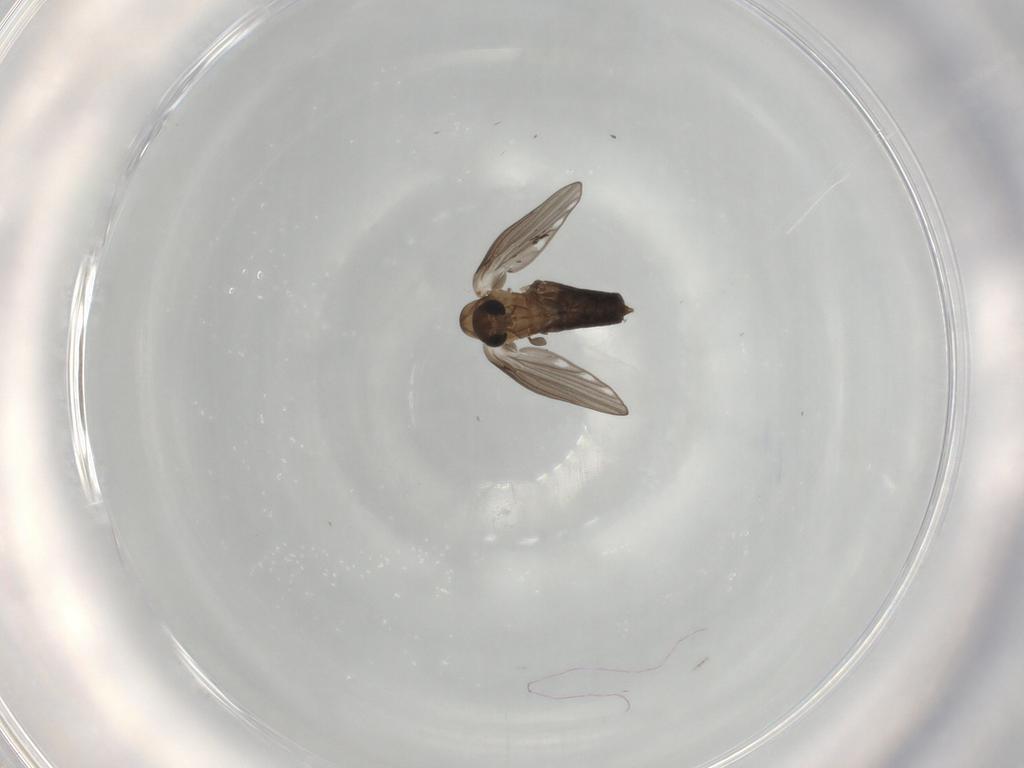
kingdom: Animalia
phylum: Arthropoda
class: Insecta
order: Diptera
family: Psychodidae
